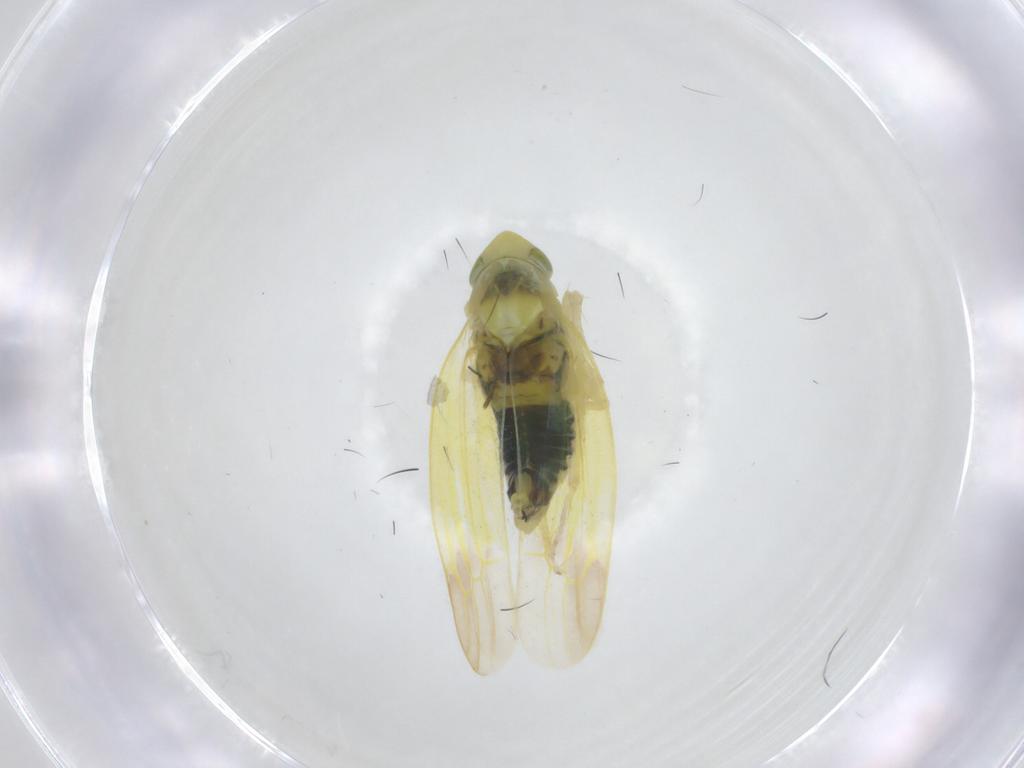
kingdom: Animalia
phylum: Arthropoda
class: Insecta
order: Hemiptera
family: Cicadellidae
